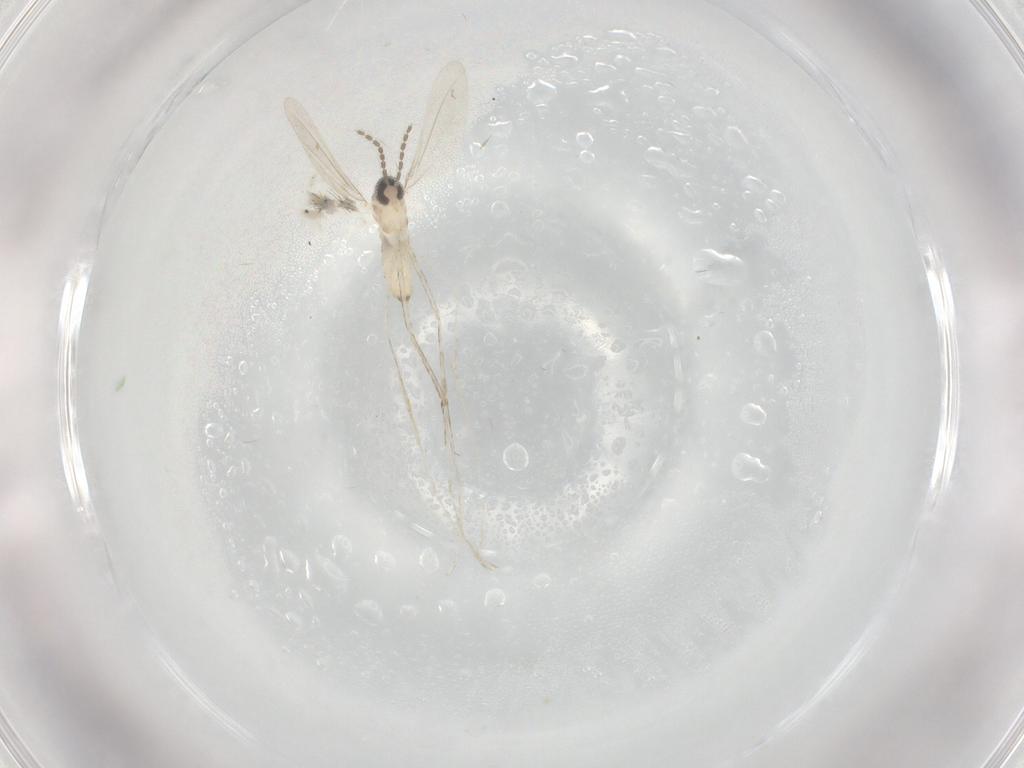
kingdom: Animalia
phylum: Arthropoda
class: Insecta
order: Diptera
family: Cecidomyiidae
